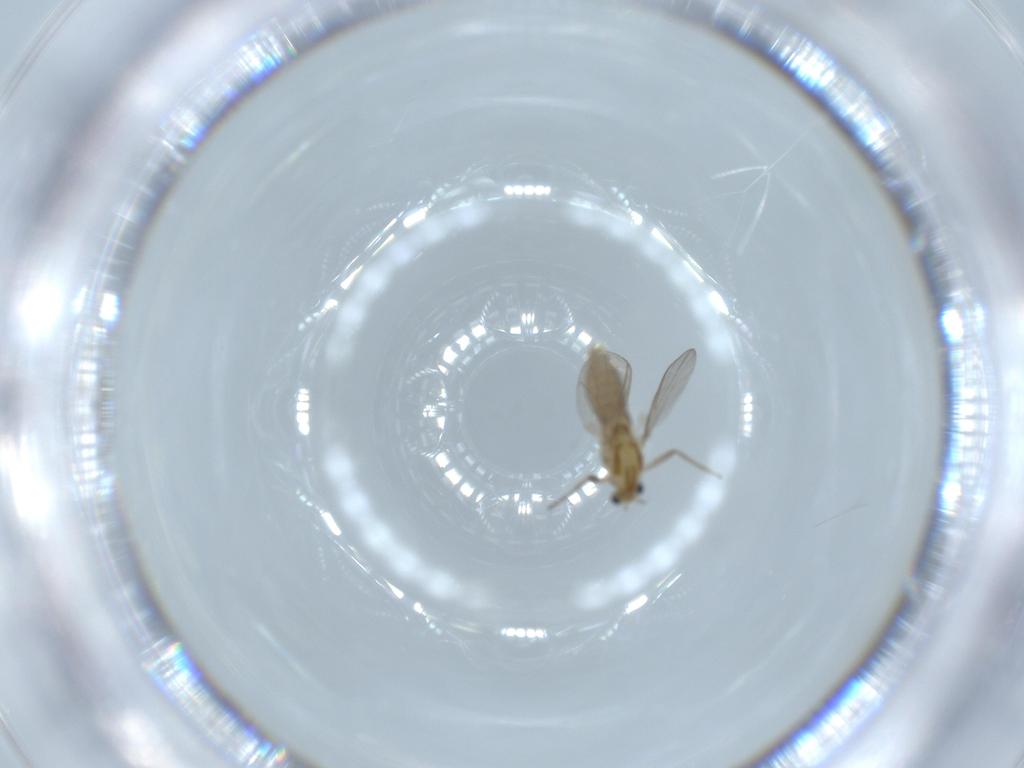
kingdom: Animalia
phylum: Arthropoda
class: Insecta
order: Diptera
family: Chironomidae
